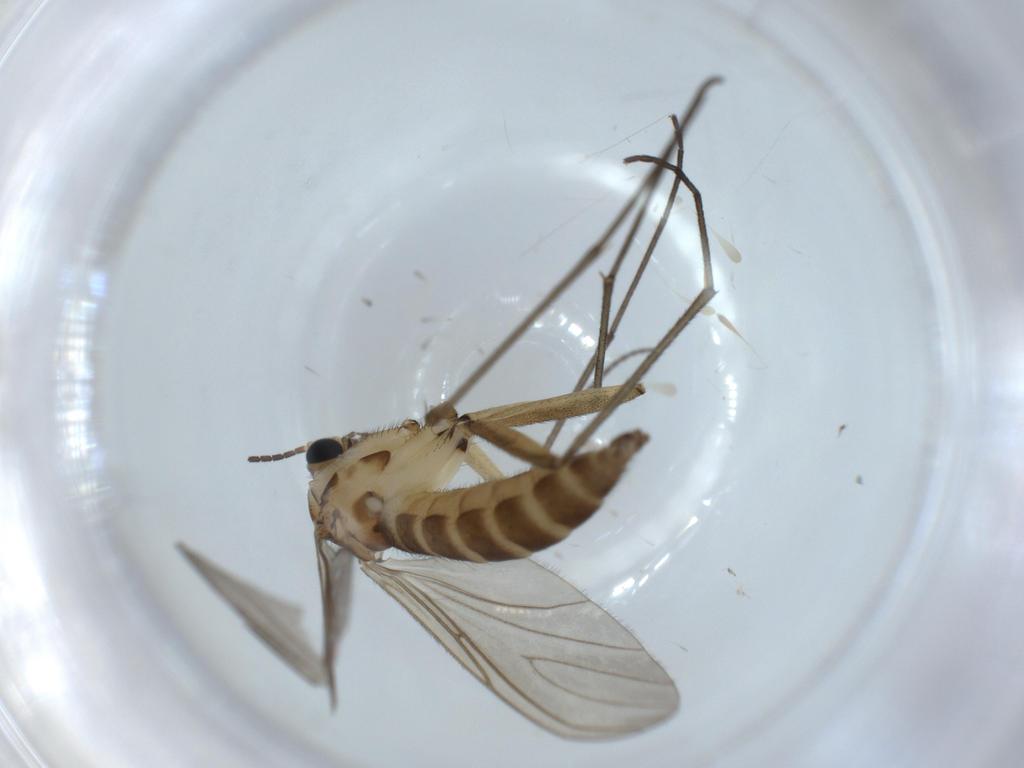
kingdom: Animalia
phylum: Arthropoda
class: Insecta
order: Diptera
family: Sciaridae
